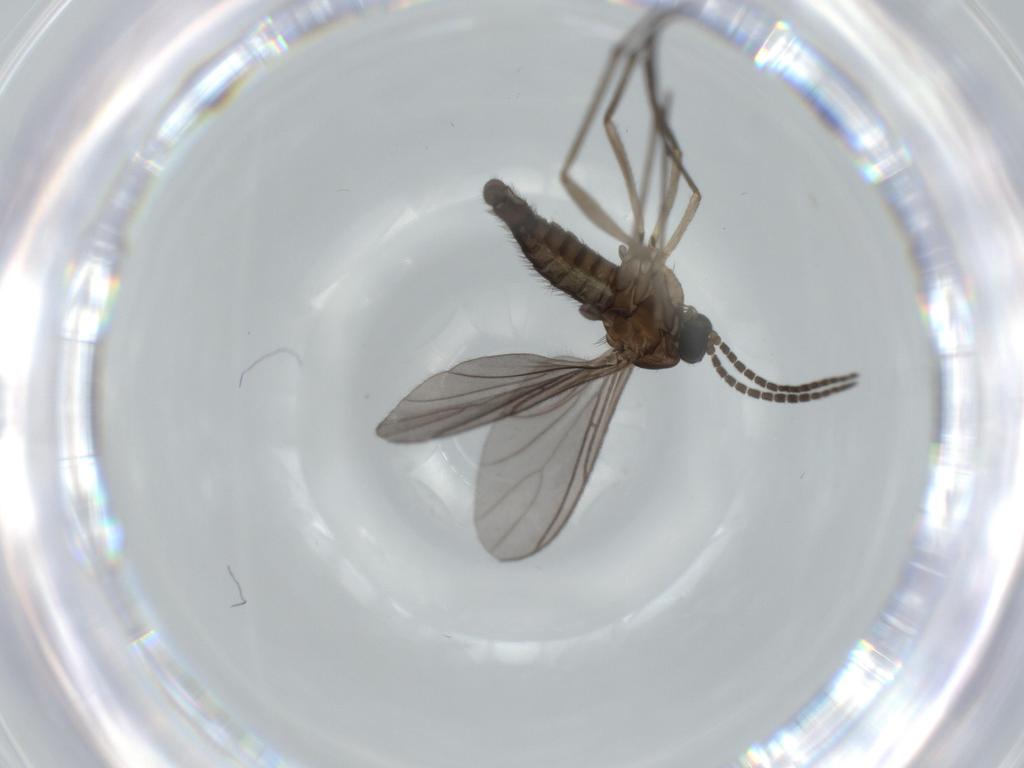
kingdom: Animalia
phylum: Arthropoda
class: Insecta
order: Diptera
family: Sciaridae
